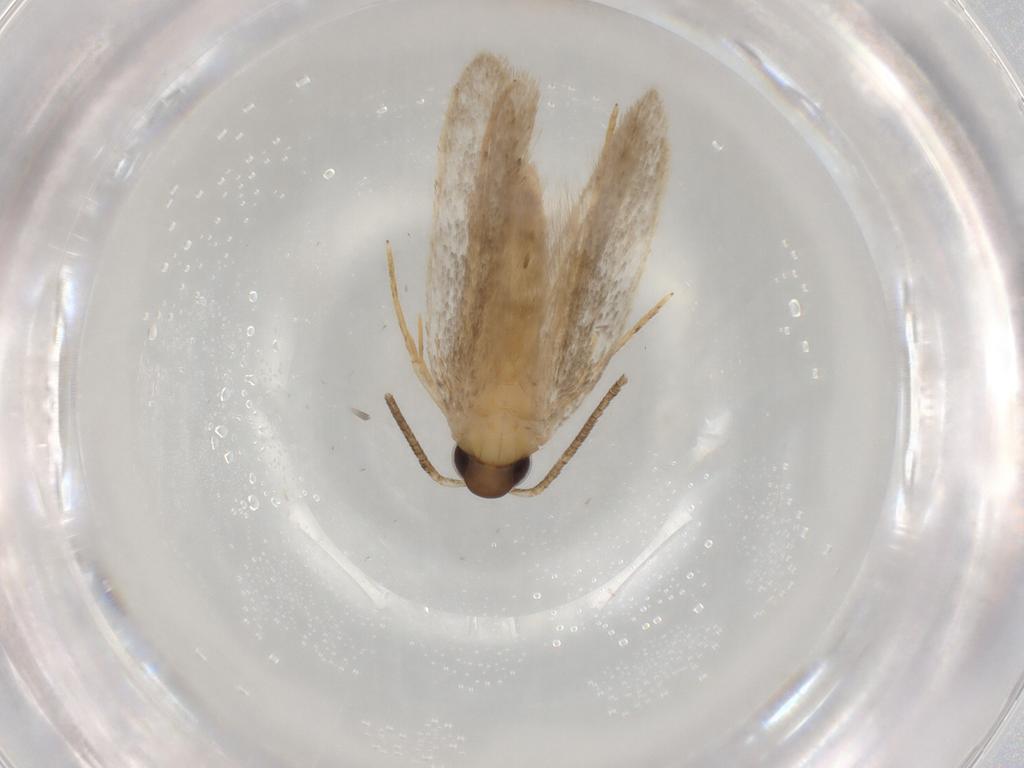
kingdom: Animalia
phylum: Arthropoda
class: Insecta
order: Lepidoptera
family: Autostichidae
